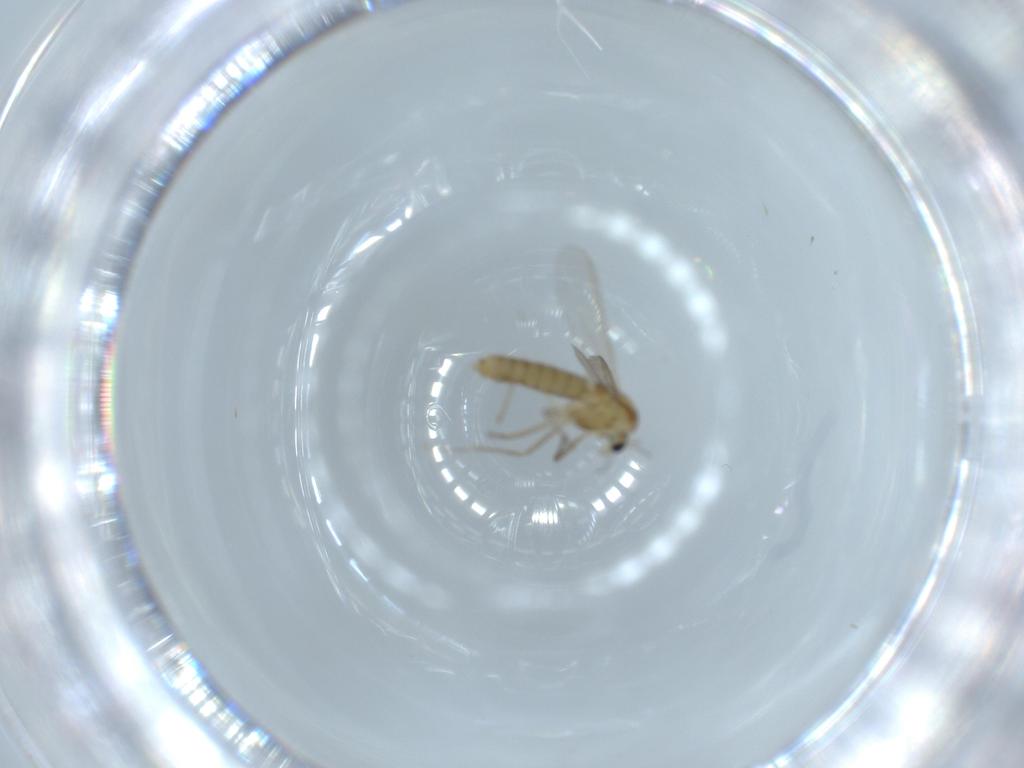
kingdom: Animalia
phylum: Arthropoda
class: Insecta
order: Diptera
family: Chironomidae
